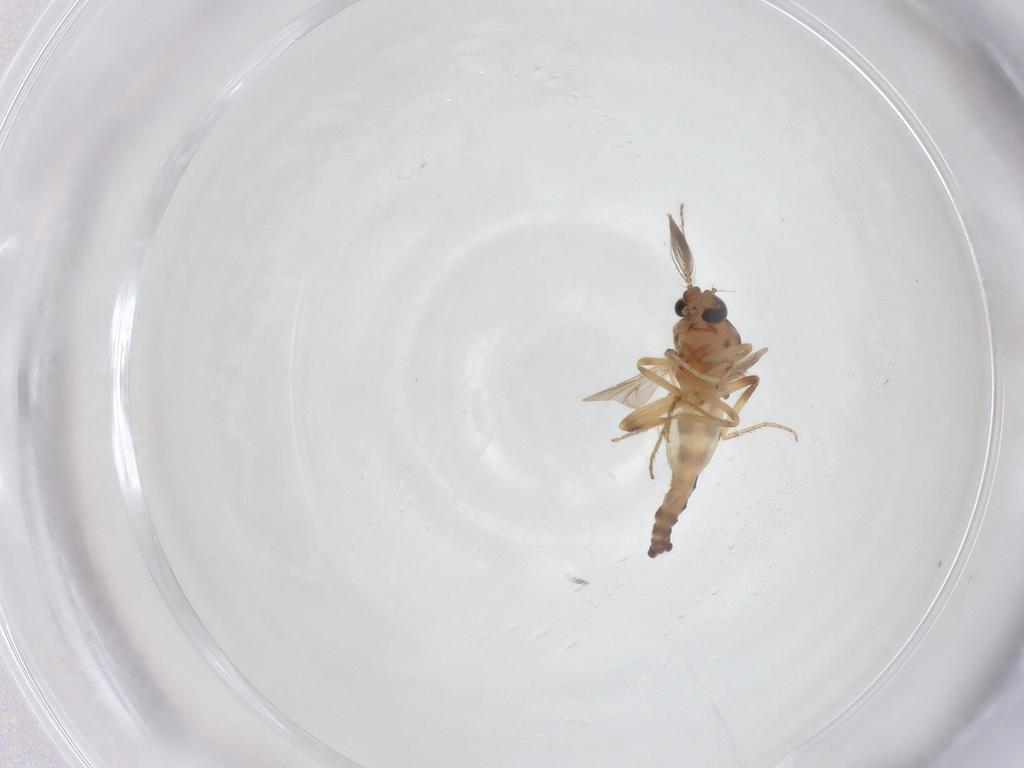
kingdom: Animalia
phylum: Arthropoda
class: Insecta
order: Diptera
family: Ceratopogonidae
